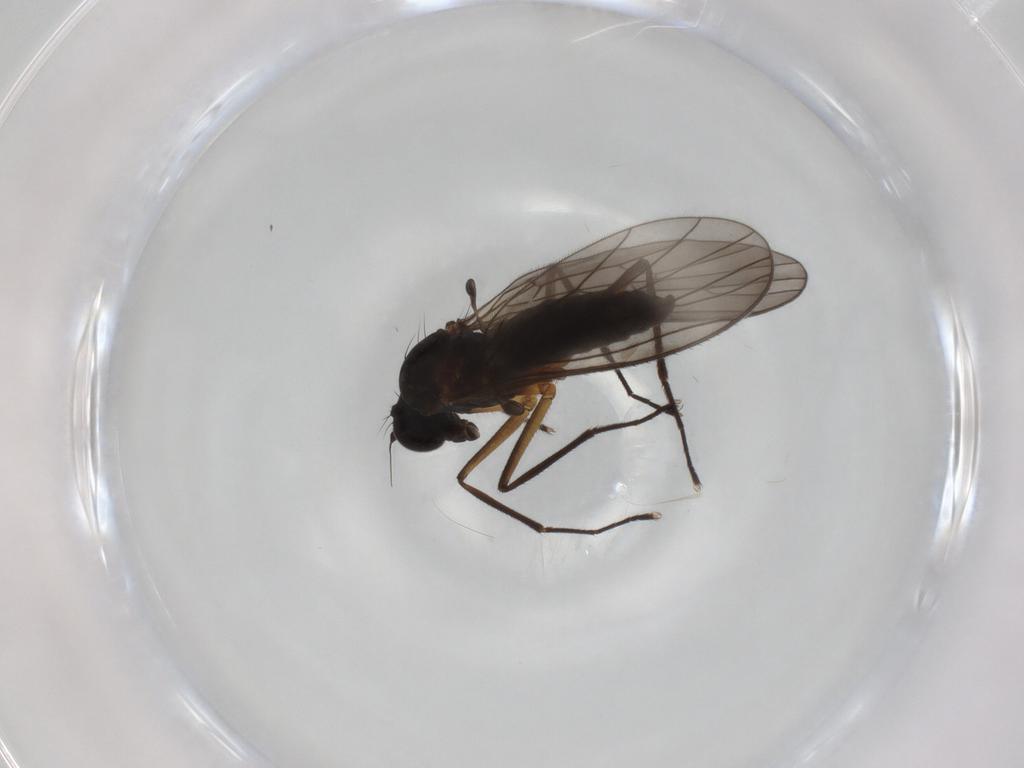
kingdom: Animalia
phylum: Arthropoda
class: Insecta
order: Diptera
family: Empididae
